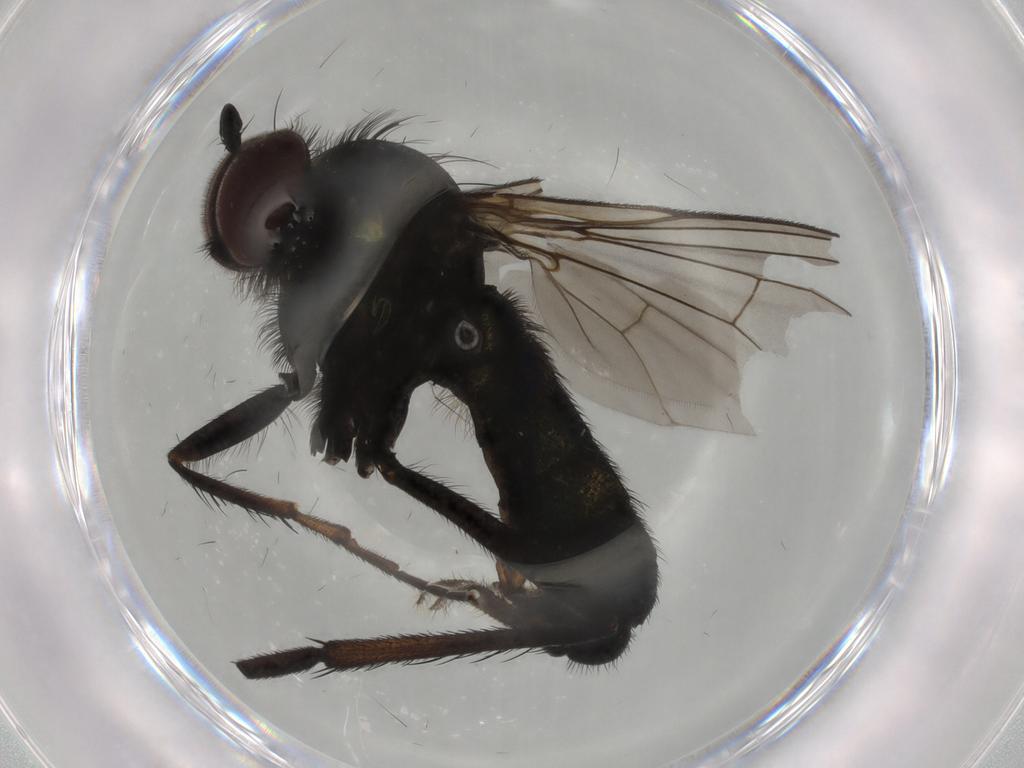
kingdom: Animalia
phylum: Arthropoda
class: Insecta
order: Diptera
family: Dolichopodidae
